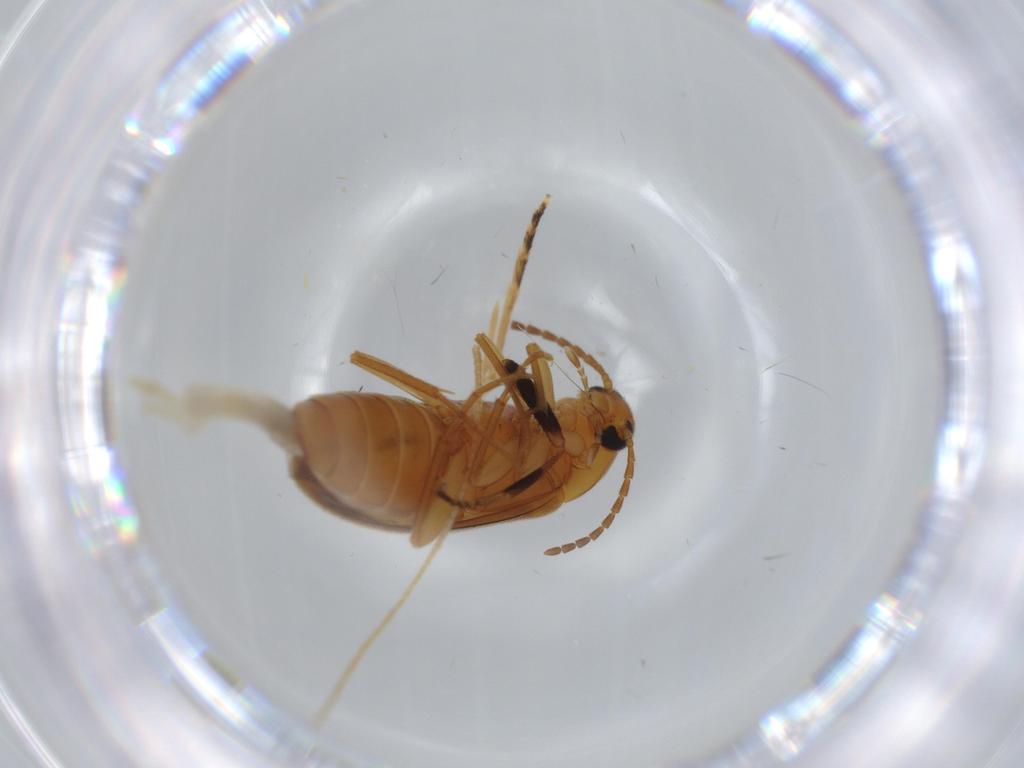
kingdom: Animalia
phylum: Arthropoda
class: Insecta
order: Coleoptera
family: Scraptiidae
